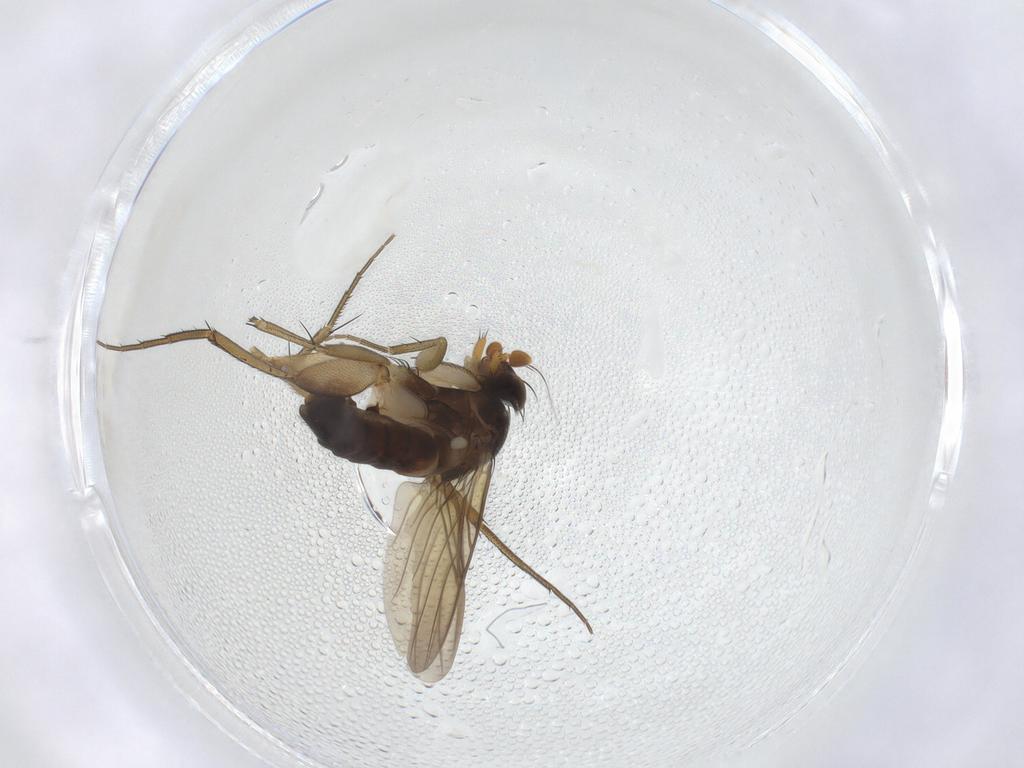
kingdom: Animalia
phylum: Arthropoda
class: Insecta
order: Diptera
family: Phoridae
